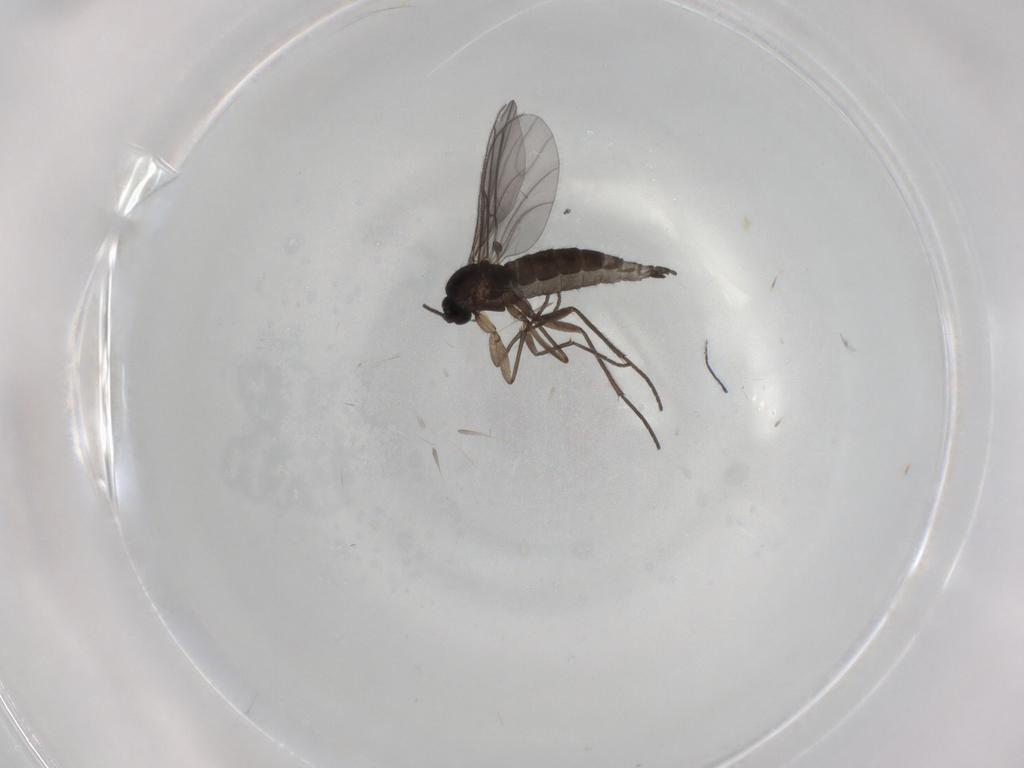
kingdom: Animalia
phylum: Arthropoda
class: Insecta
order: Diptera
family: Sciaridae
